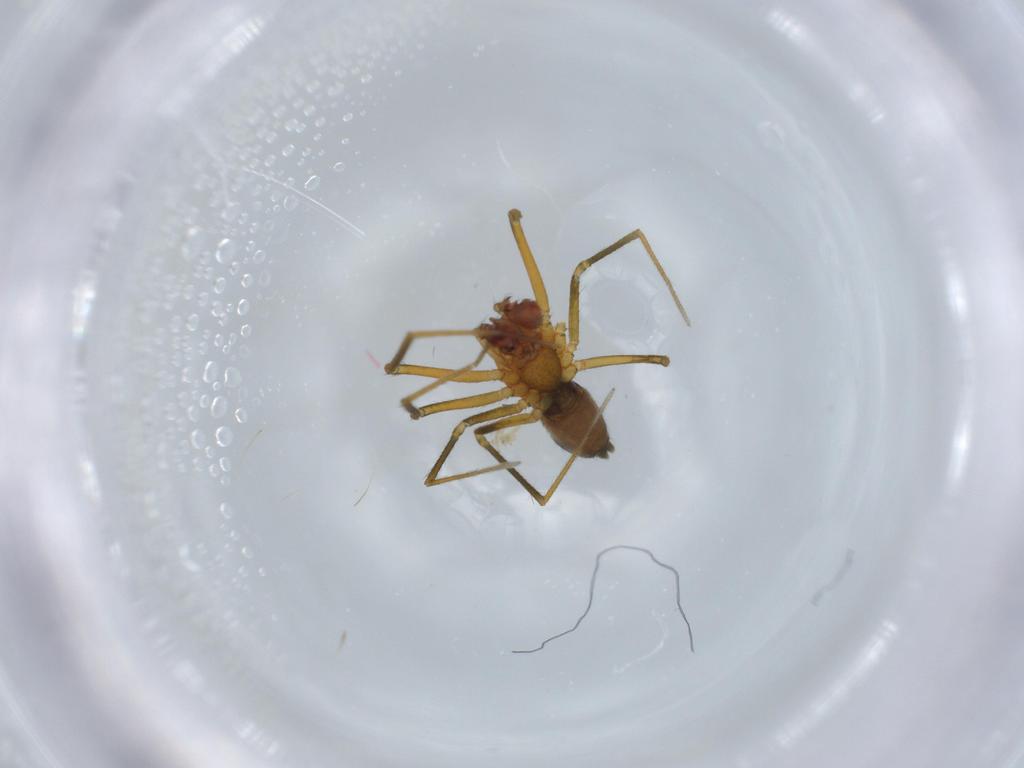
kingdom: Animalia
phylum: Arthropoda
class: Arachnida
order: Araneae
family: Linyphiidae
